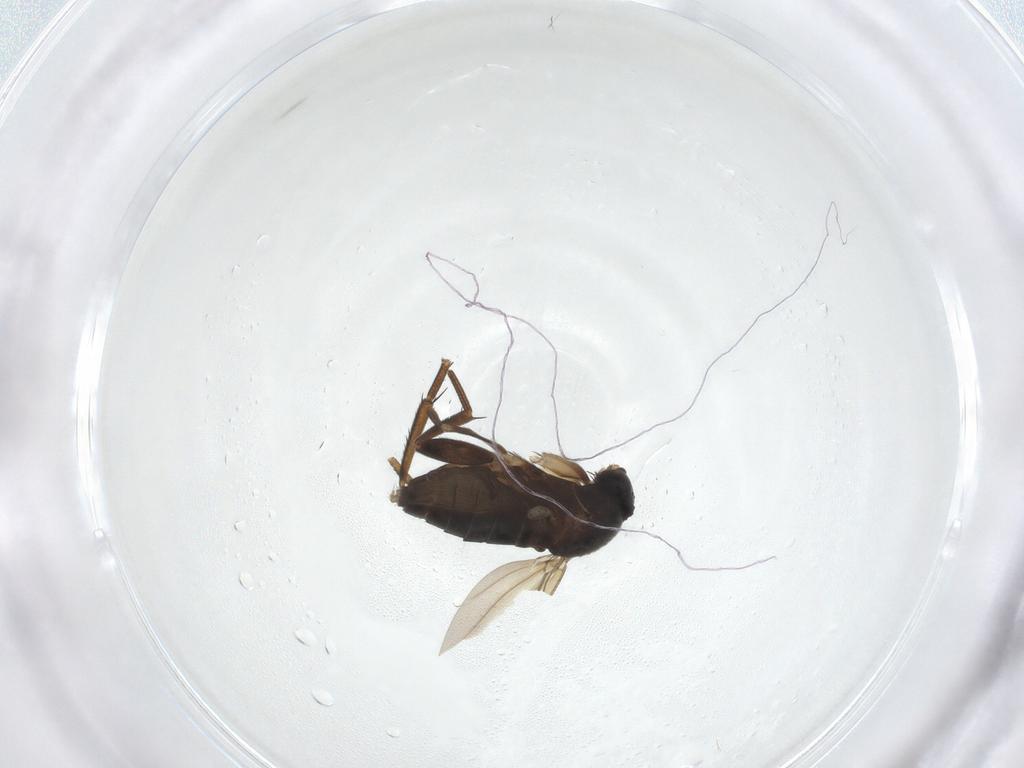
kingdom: Animalia
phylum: Arthropoda
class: Insecta
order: Diptera
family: Phoridae
